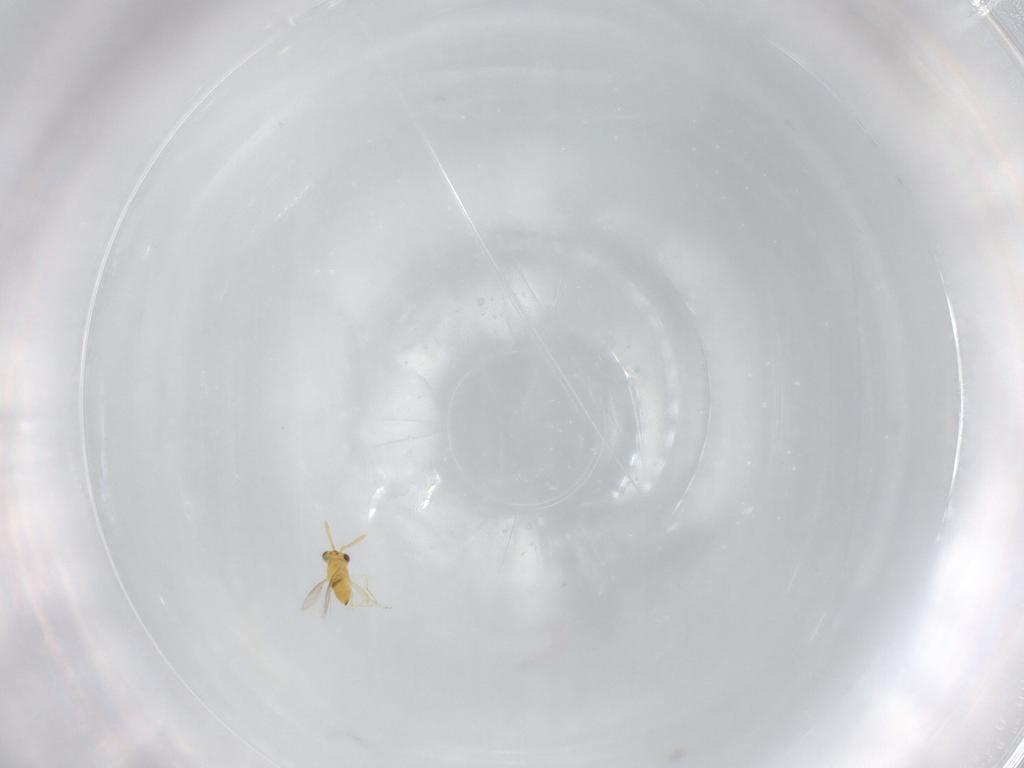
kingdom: Animalia
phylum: Arthropoda
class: Insecta
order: Hymenoptera
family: Aphelinidae
